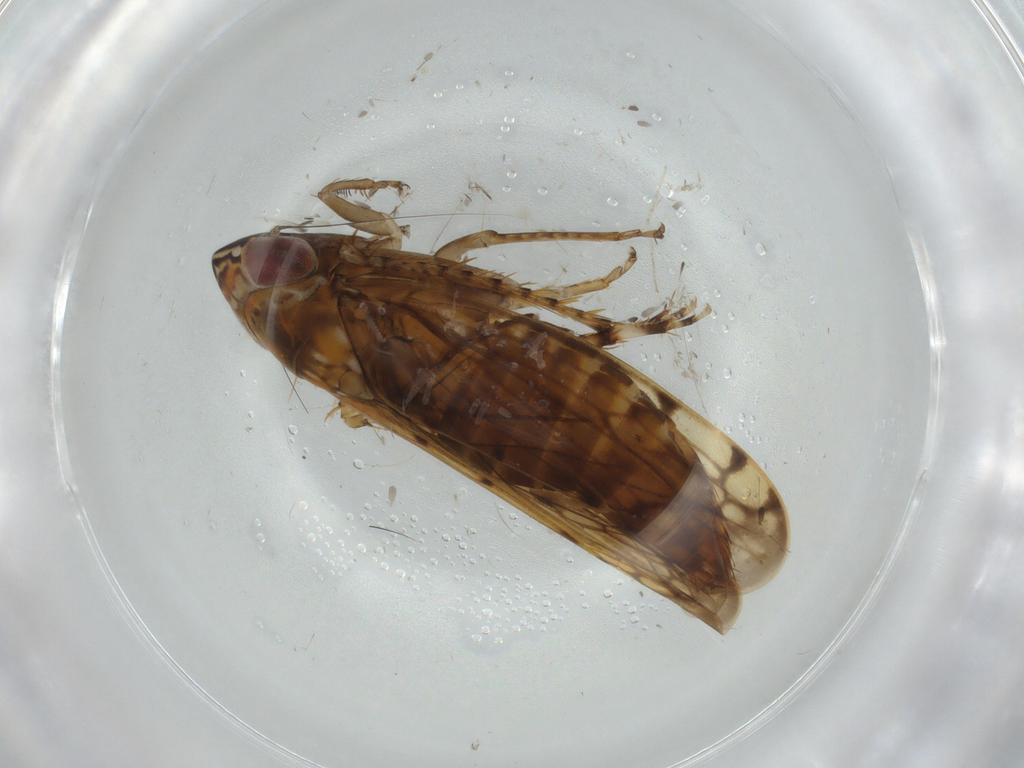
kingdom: Animalia
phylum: Arthropoda
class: Insecta
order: Hemiptera
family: Cicadellidae
